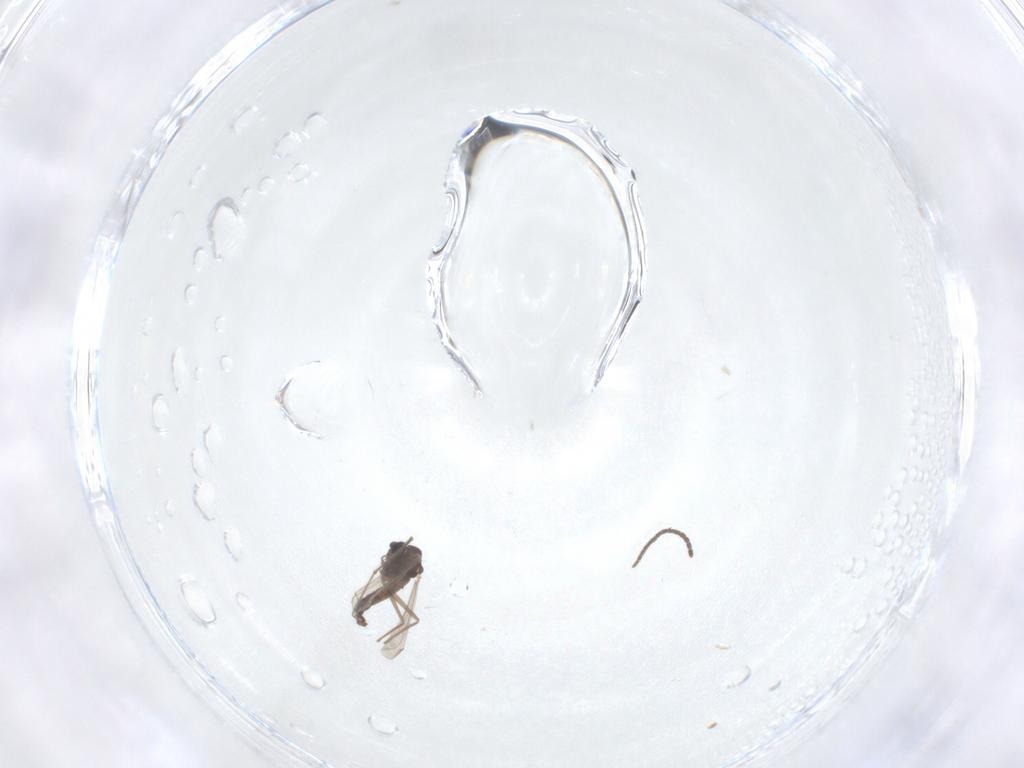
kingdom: Animalia
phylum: Arthropoda
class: Insecta
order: Diptera
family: Sciaridae
